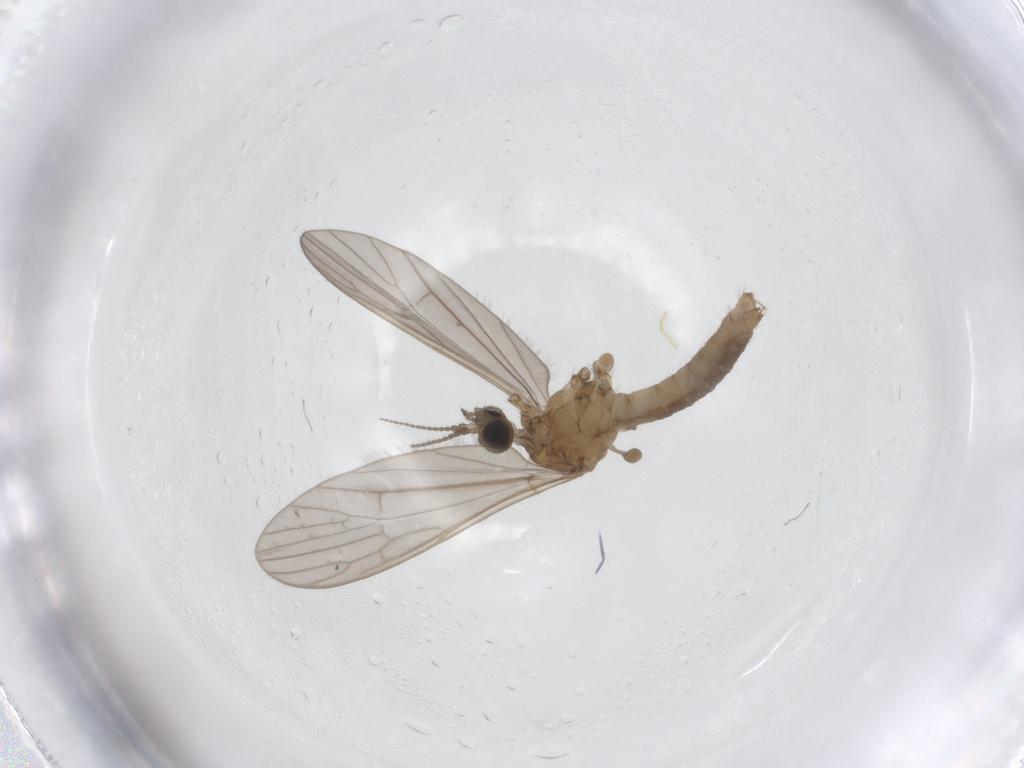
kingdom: Animalia
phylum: Arthropoda
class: Insecta
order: Diptera
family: Limoniidae
